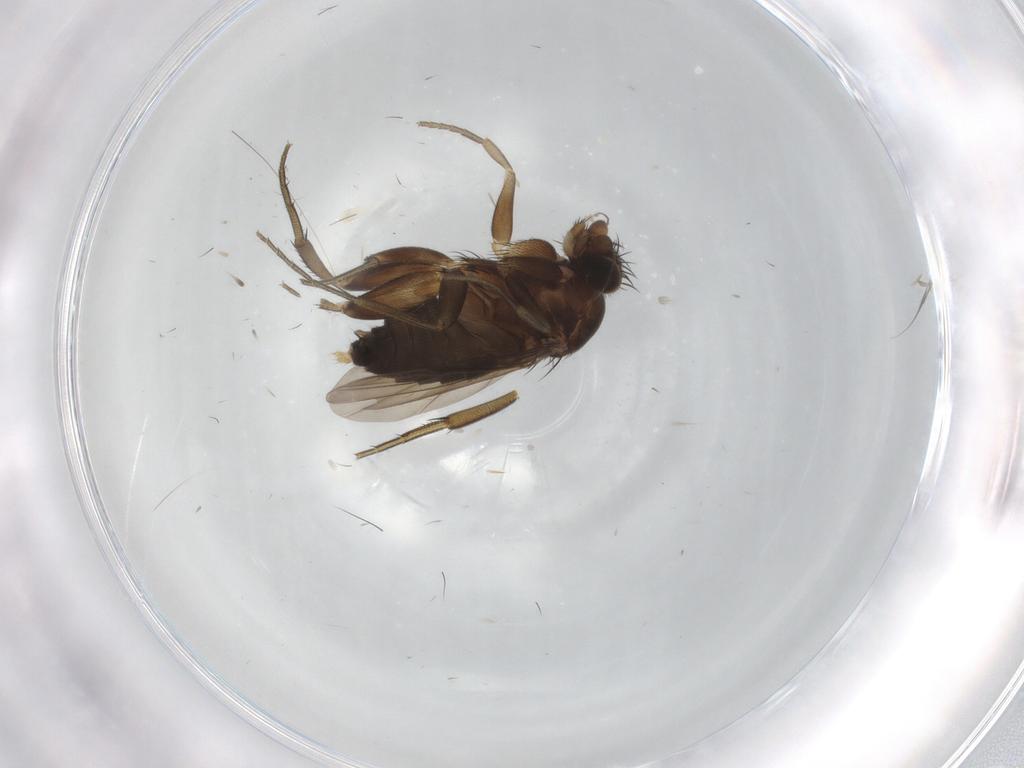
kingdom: Animalia
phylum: Arthropoda
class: Insecta
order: Diptera
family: Phoridae
